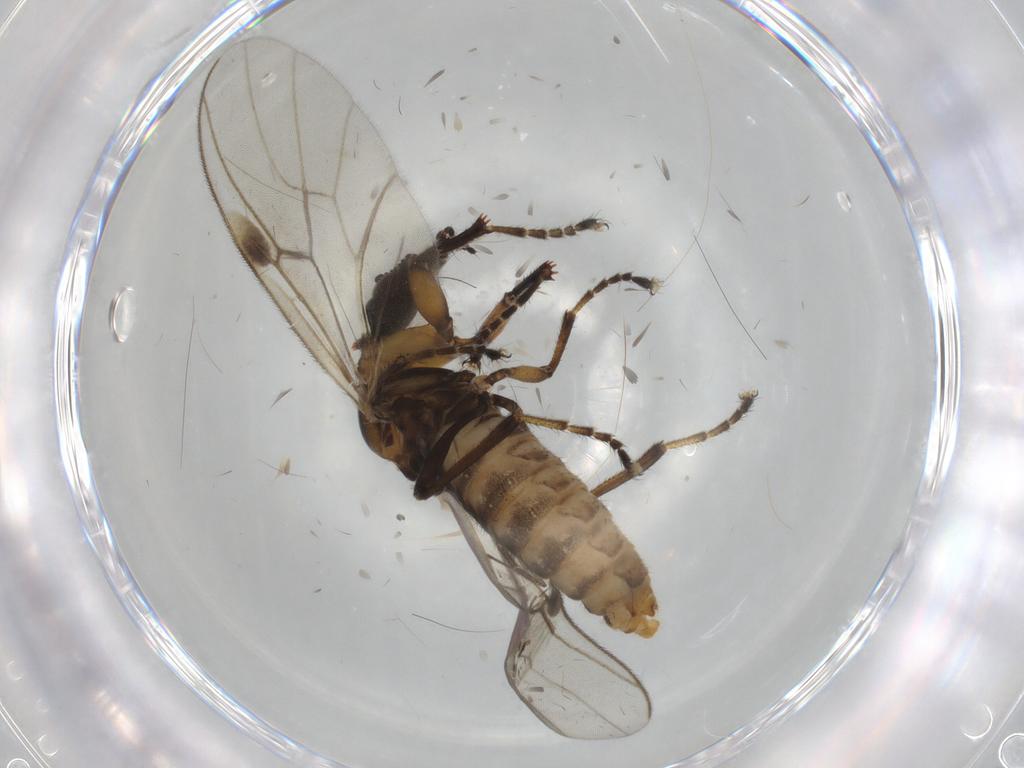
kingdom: Animalia
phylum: Arthropoda
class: Insecta
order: Diptera
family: Bibionidae
